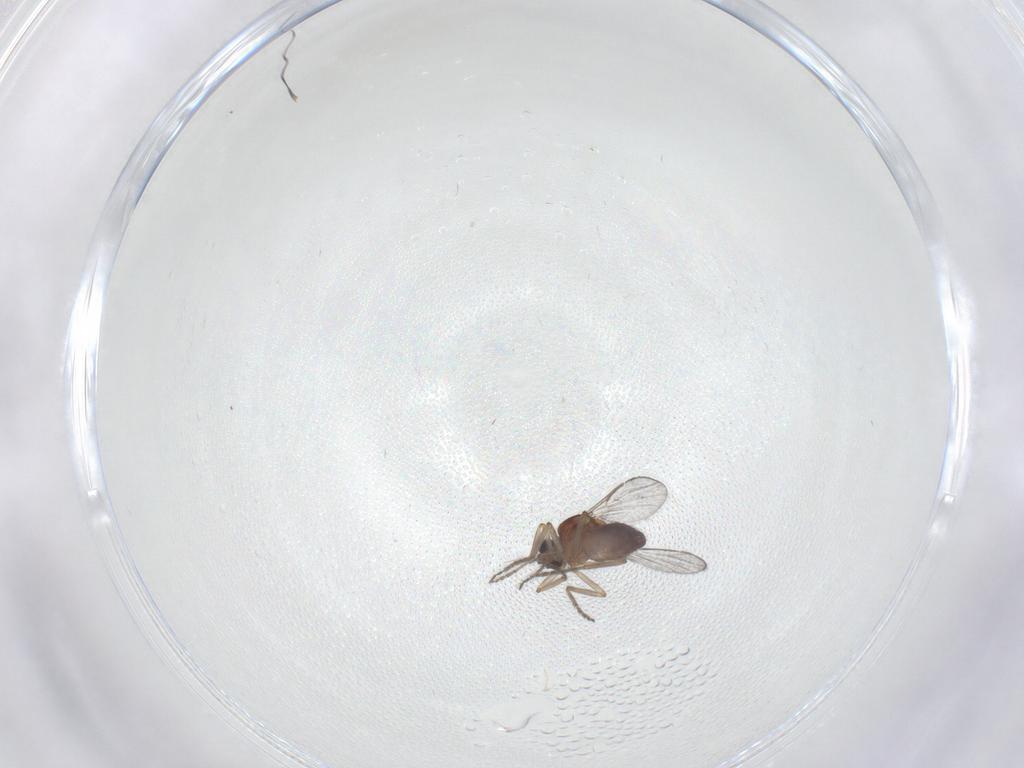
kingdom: Animalia
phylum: Arthropoda
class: Insecta
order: Diptera
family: Ceratopogonidae
